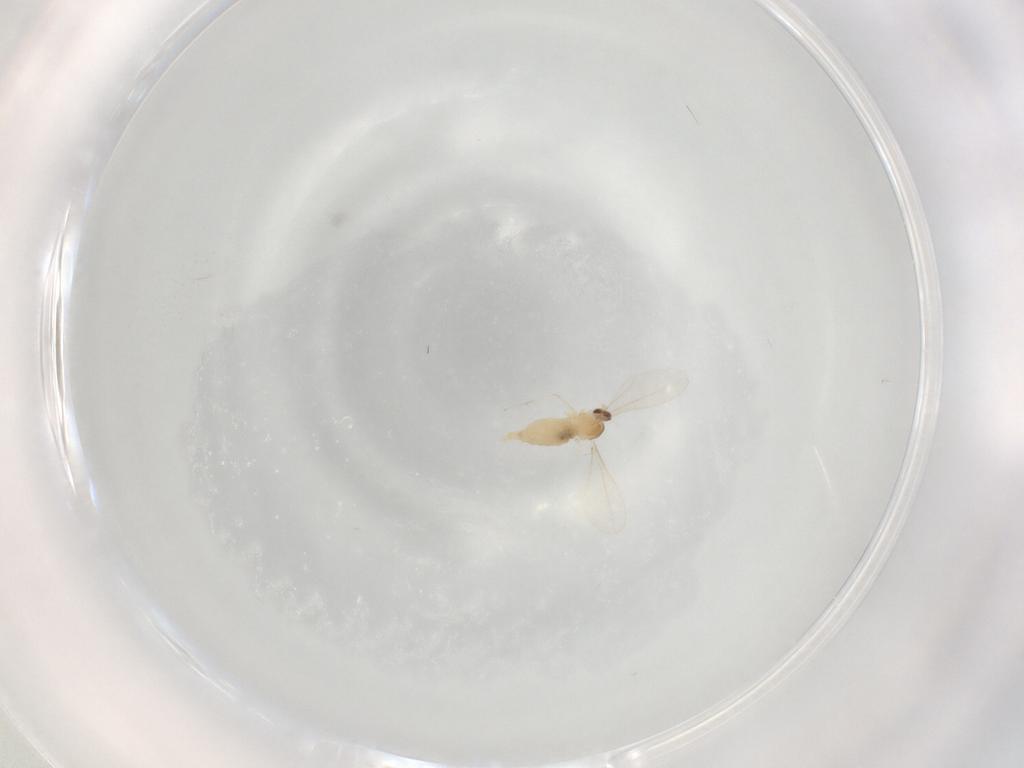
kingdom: Animalia
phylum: Arthropoda
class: Insecta
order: Diptera
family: Cecidomyiidae
